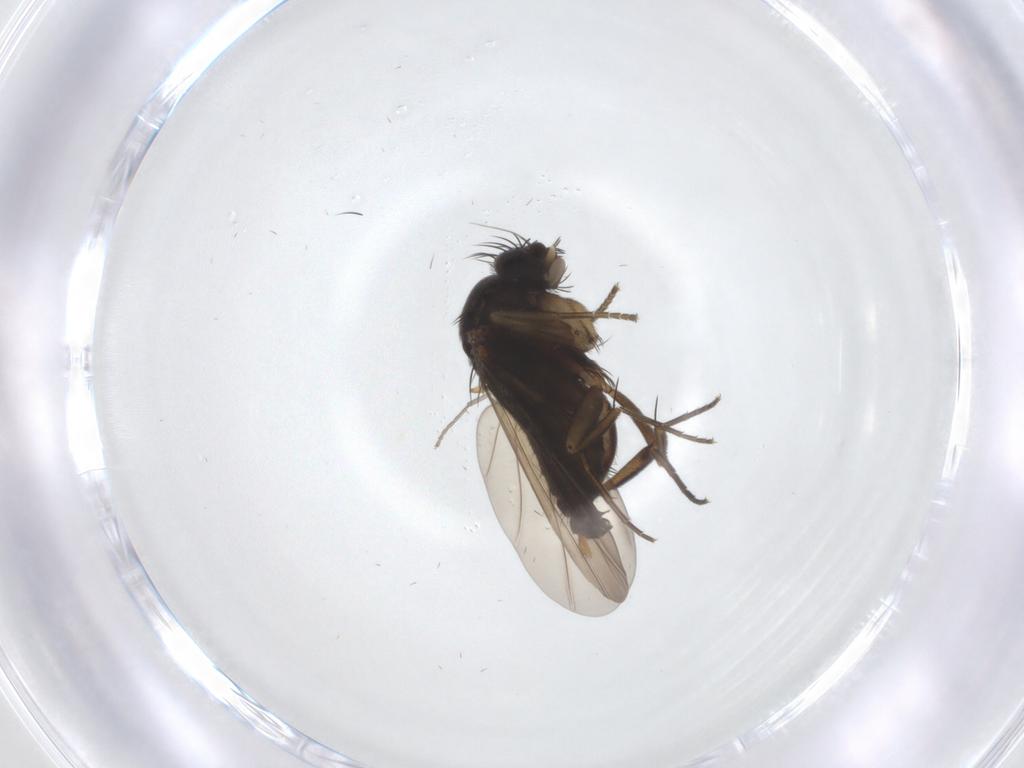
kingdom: Animalia
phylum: Arthropoda
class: Insecta
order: Diptera
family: Phoridae
